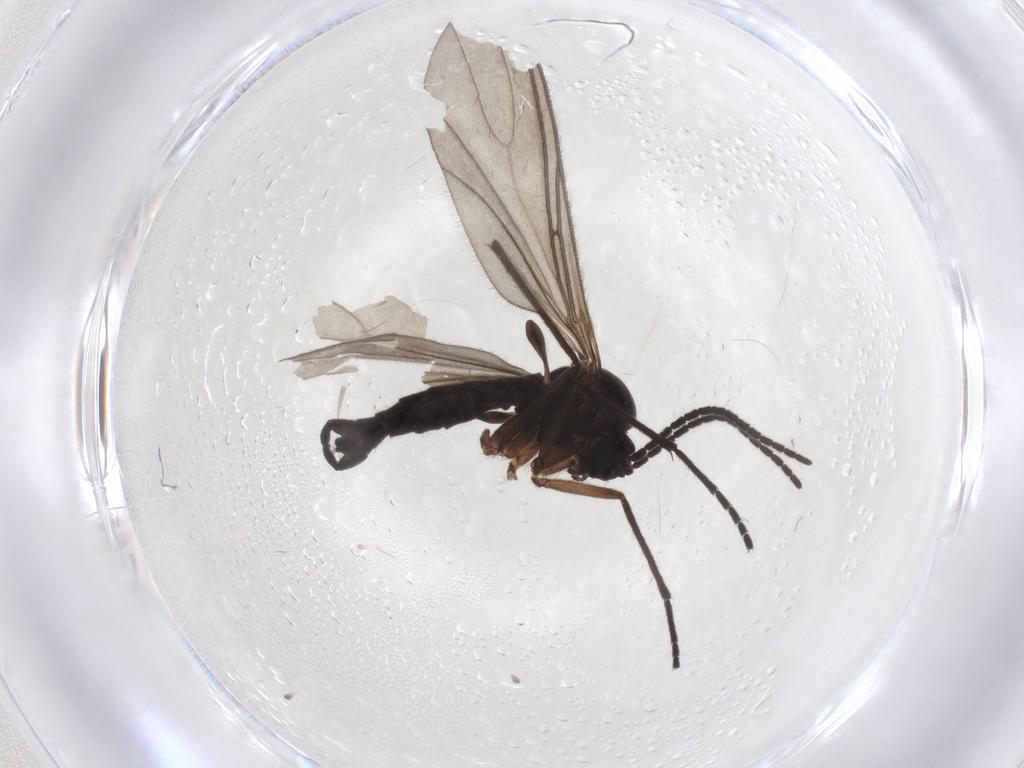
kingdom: Animalia
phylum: Arthropoda
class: Insecta
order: Diptera
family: Sciaridae
